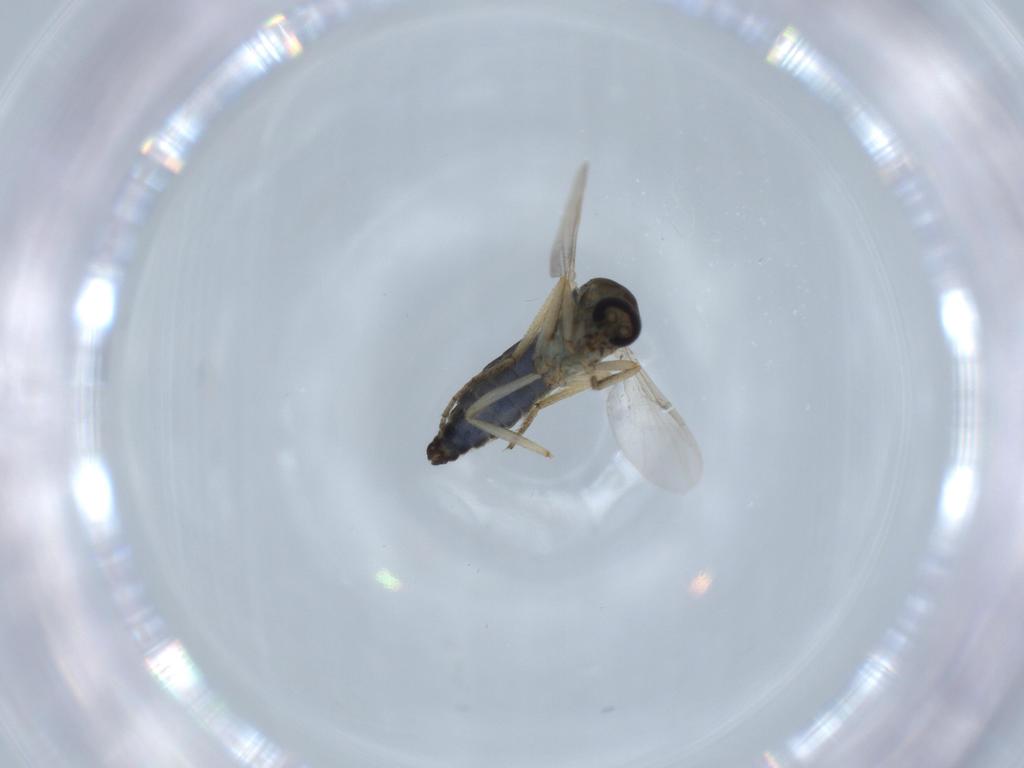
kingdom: Animalia
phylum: Arthropoda
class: Insecta
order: Diptera
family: Ceratopogonidae
